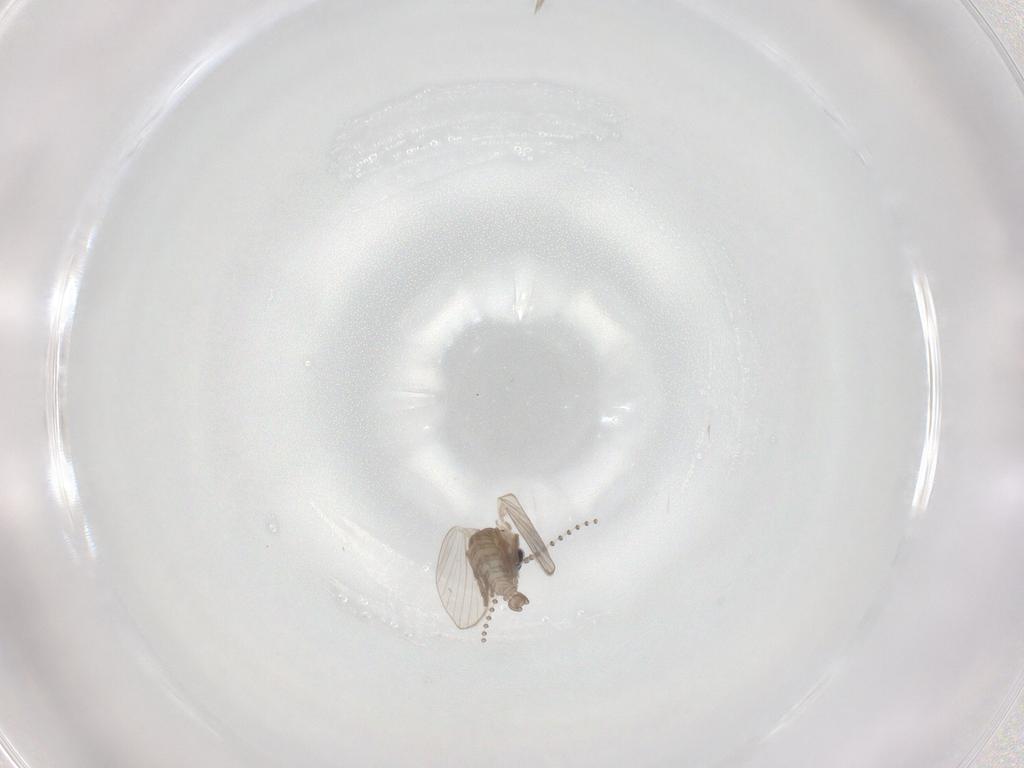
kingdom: Animalia
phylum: Arthropoda
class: Insecta
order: Diptera
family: Psychodidae
